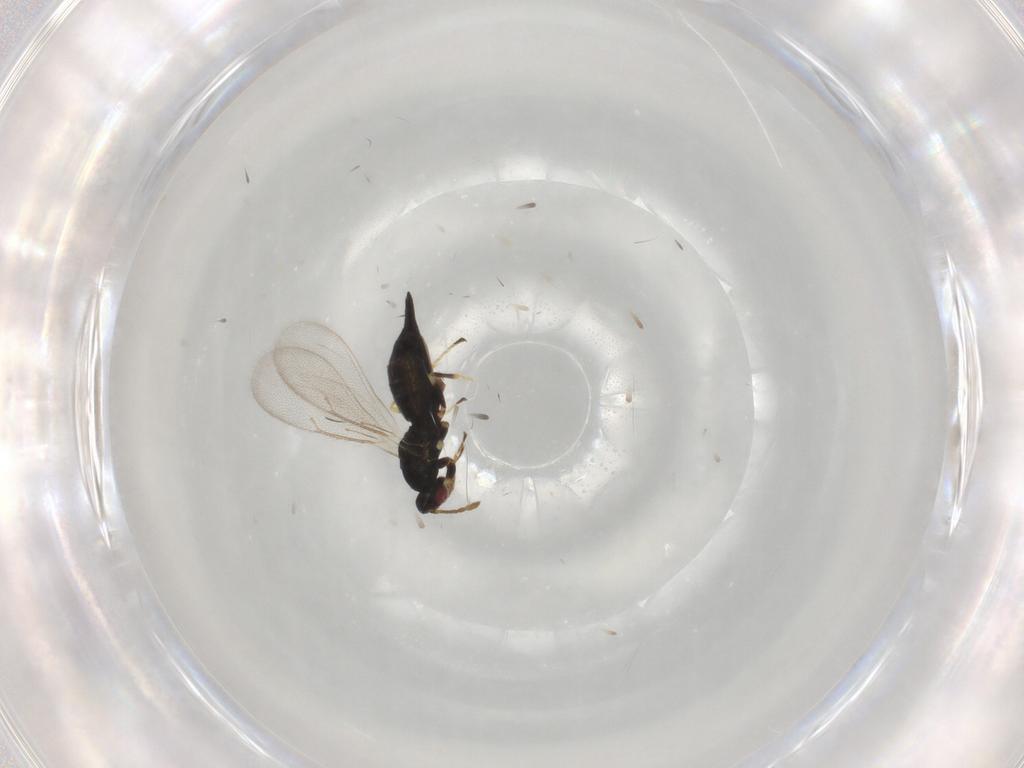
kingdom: Animalia
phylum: Arthropoda
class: Insecta
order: Hymenoptera
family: Eulophidae
